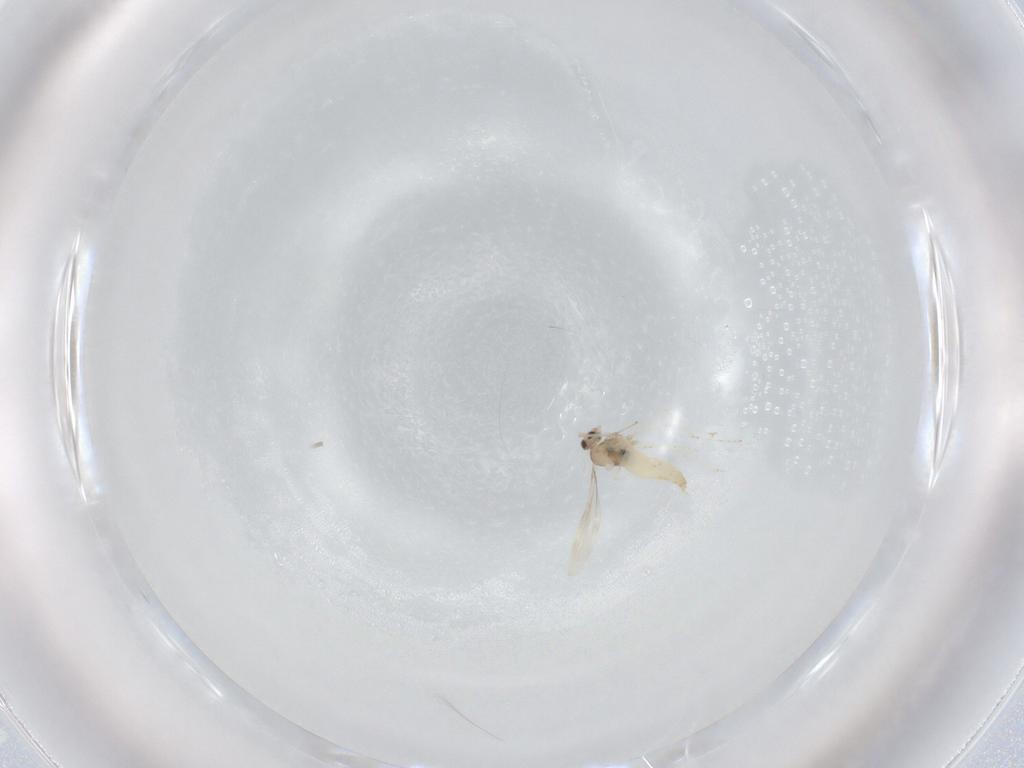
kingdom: Animalia
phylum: Arthropoda
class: Insecta
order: Diptera
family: Cecidomyiidae
